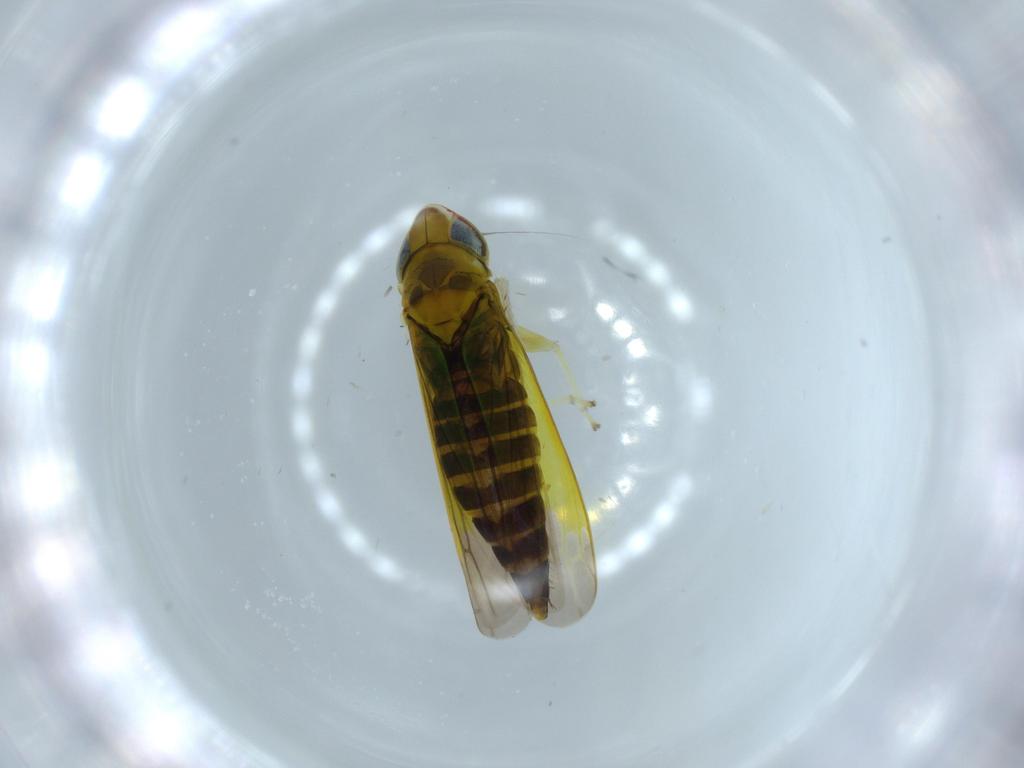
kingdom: Animalia
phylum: Arthropoda
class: Insecta
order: Hemiptera
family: Cicadellidae
